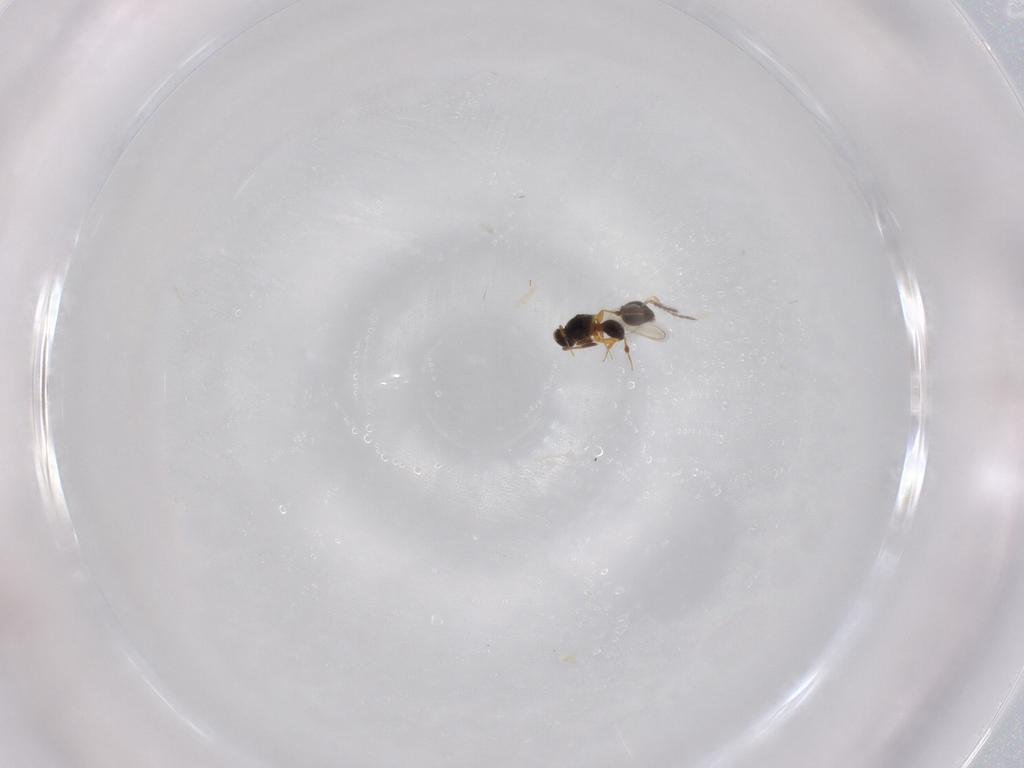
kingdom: Animalia
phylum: Arthropoda
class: Insecta
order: Hymenoptera
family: Eulophidae
